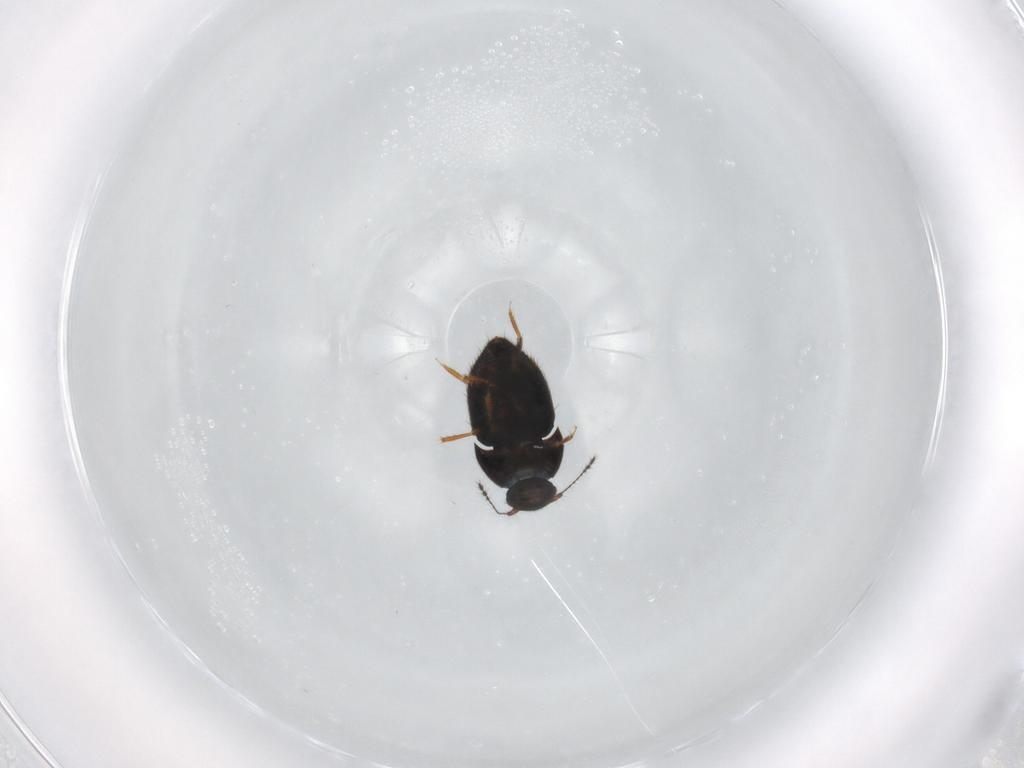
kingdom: Animalia
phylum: Arthropoda
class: Insecta
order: Coleoptera
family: Ptiliidae
